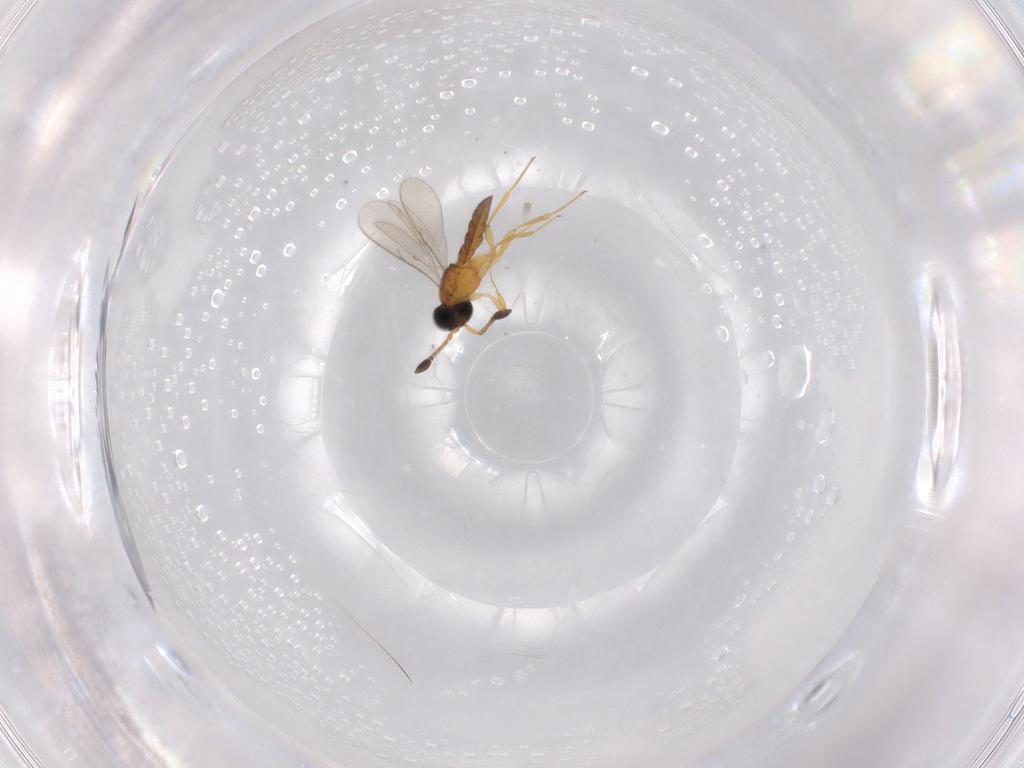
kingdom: Animalia
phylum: Arthropoda
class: Insecta
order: Hymenoptera
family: Scelionidae
